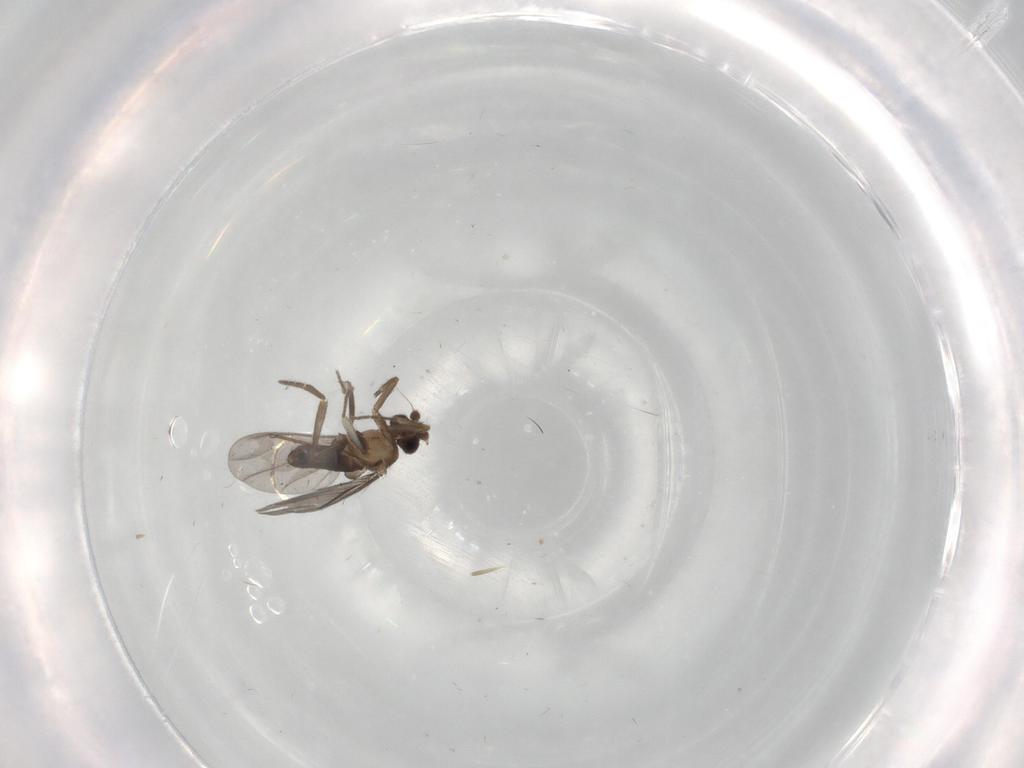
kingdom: Animalia
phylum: Arthropoda
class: Insecta
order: Diptera
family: Phoridae
